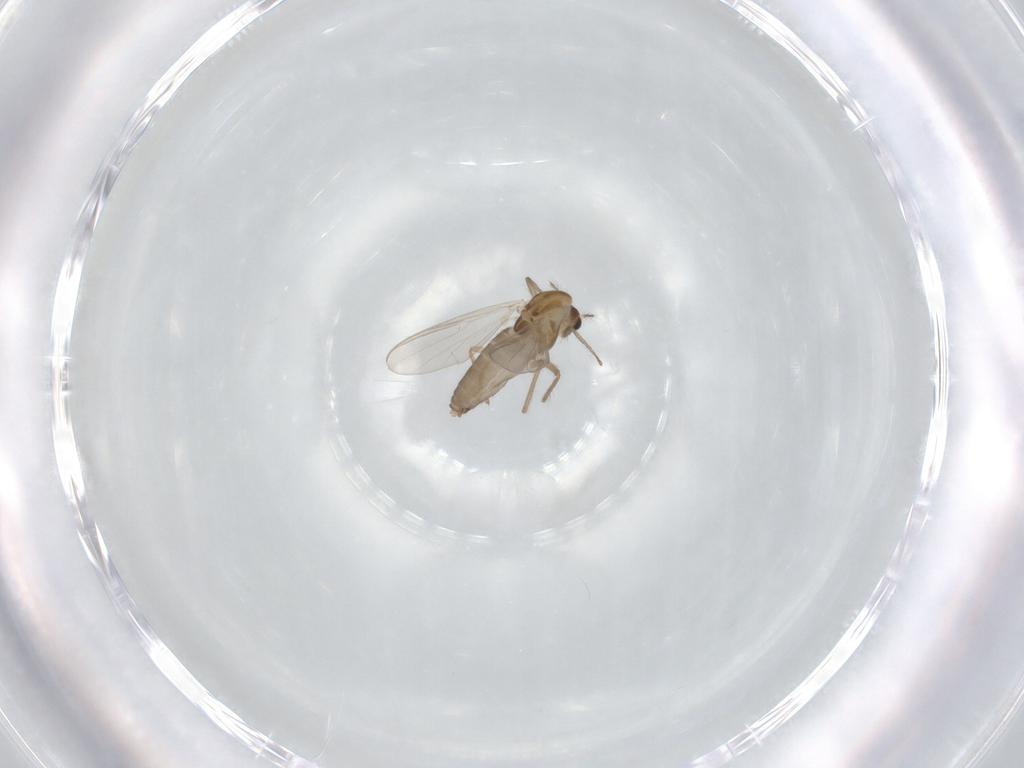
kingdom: Animalia
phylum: Arthropoda
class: Insecta
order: Diptera
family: Chironomidae
